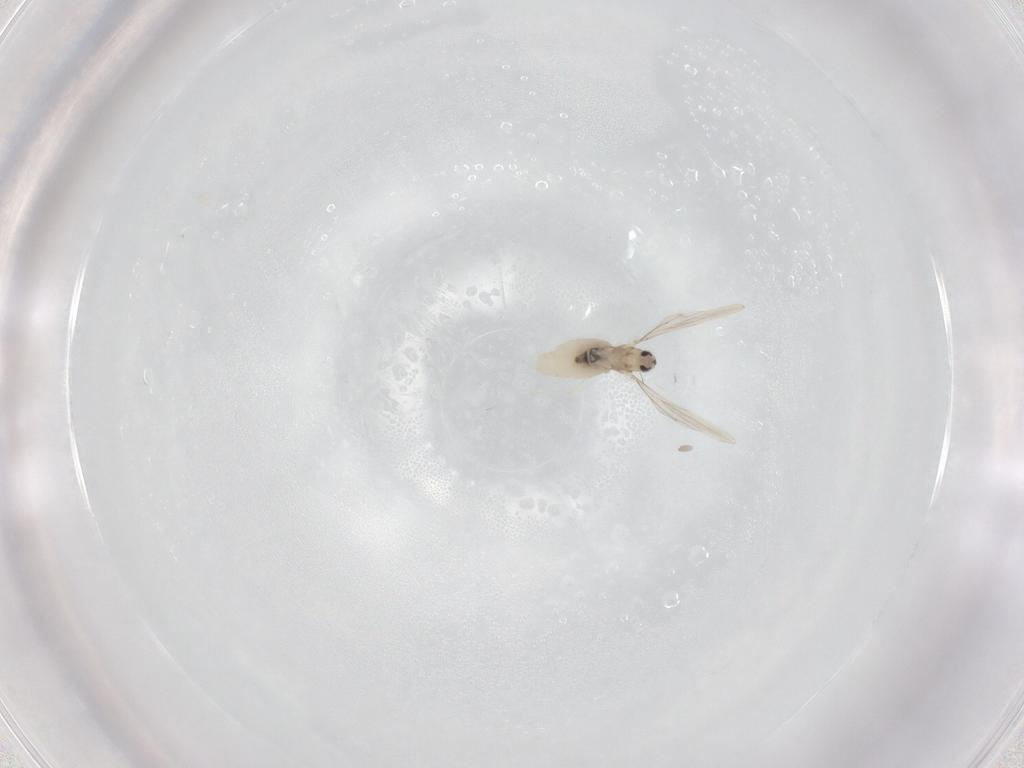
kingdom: Animalia
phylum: Arthropoda
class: Insecta
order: Diptera
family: Cecidomyiidae
